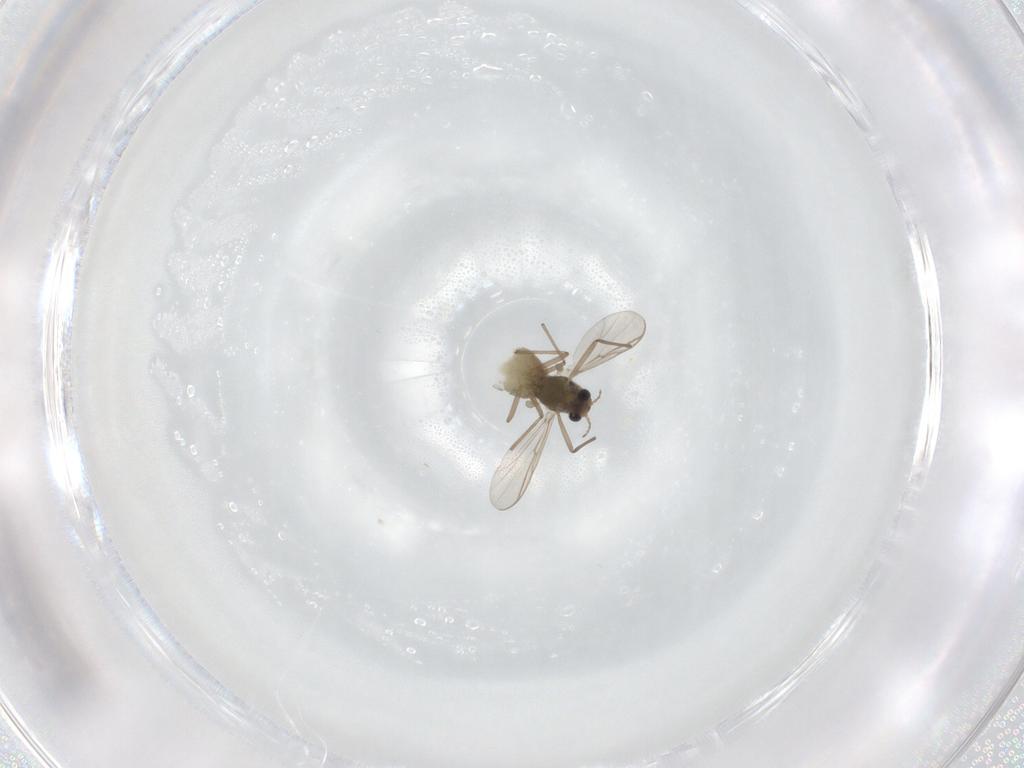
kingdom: Animalia
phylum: Arthropoda
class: Insecta
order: Diptera
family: Chironomidae
